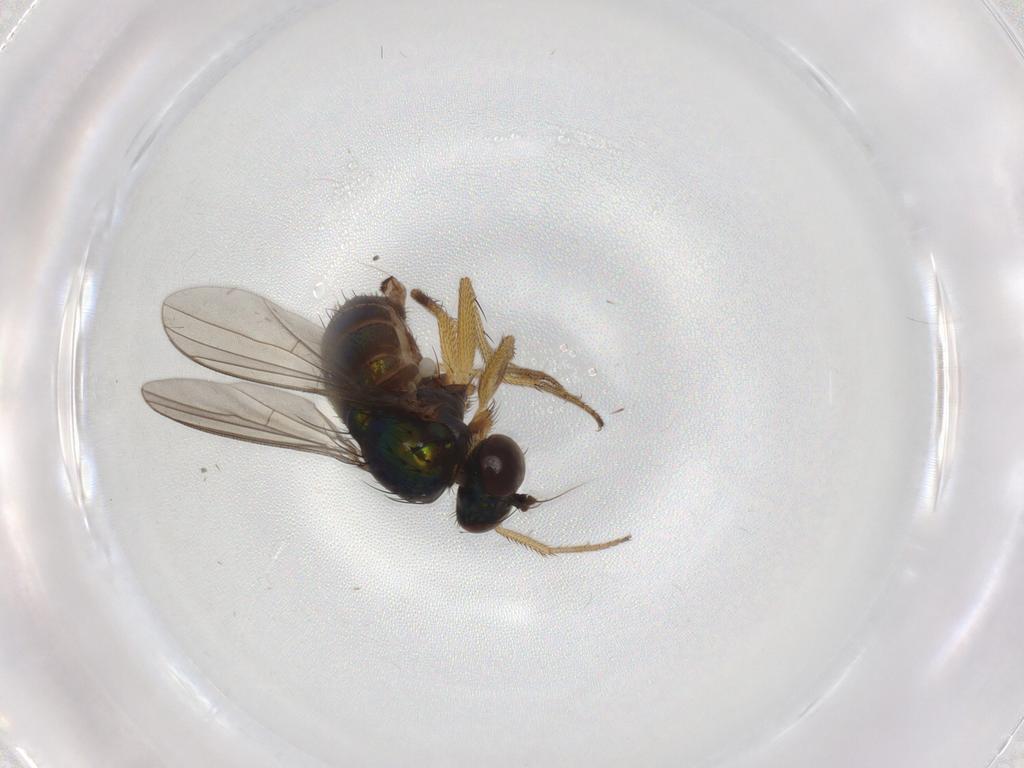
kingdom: Animalia
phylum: Arthropoda
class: Insecta
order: Diptera
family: Dolichopodidae
